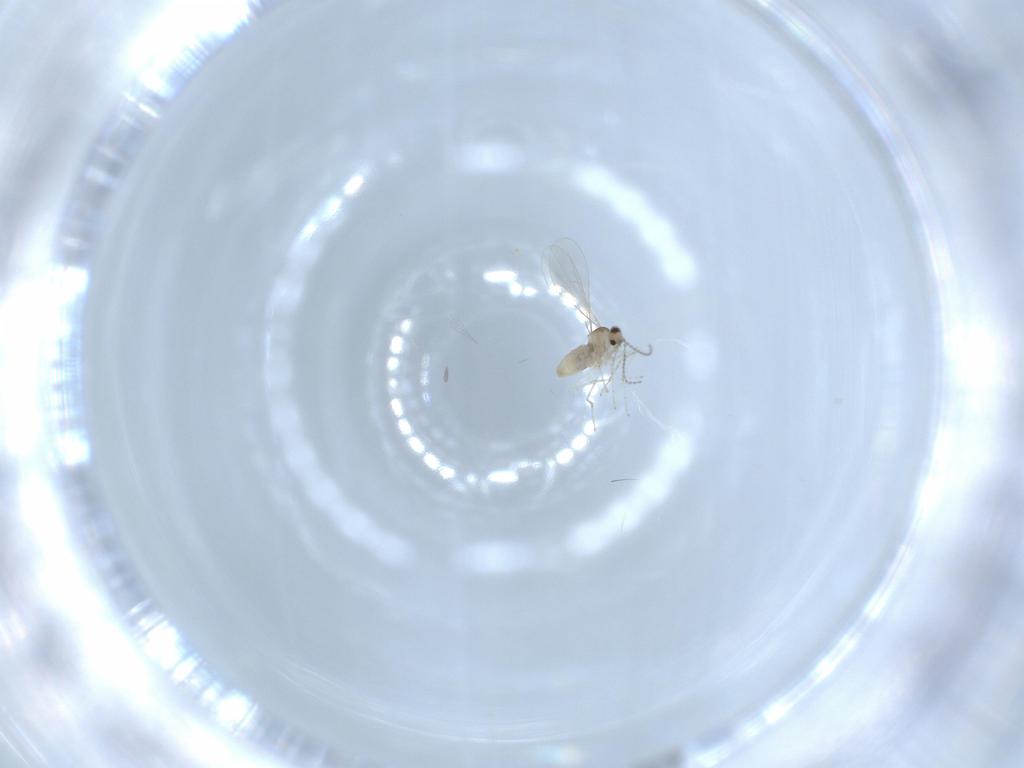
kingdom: Animalia
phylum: Arthropoda
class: Insecta
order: Diptera
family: Cecidomyiidae
